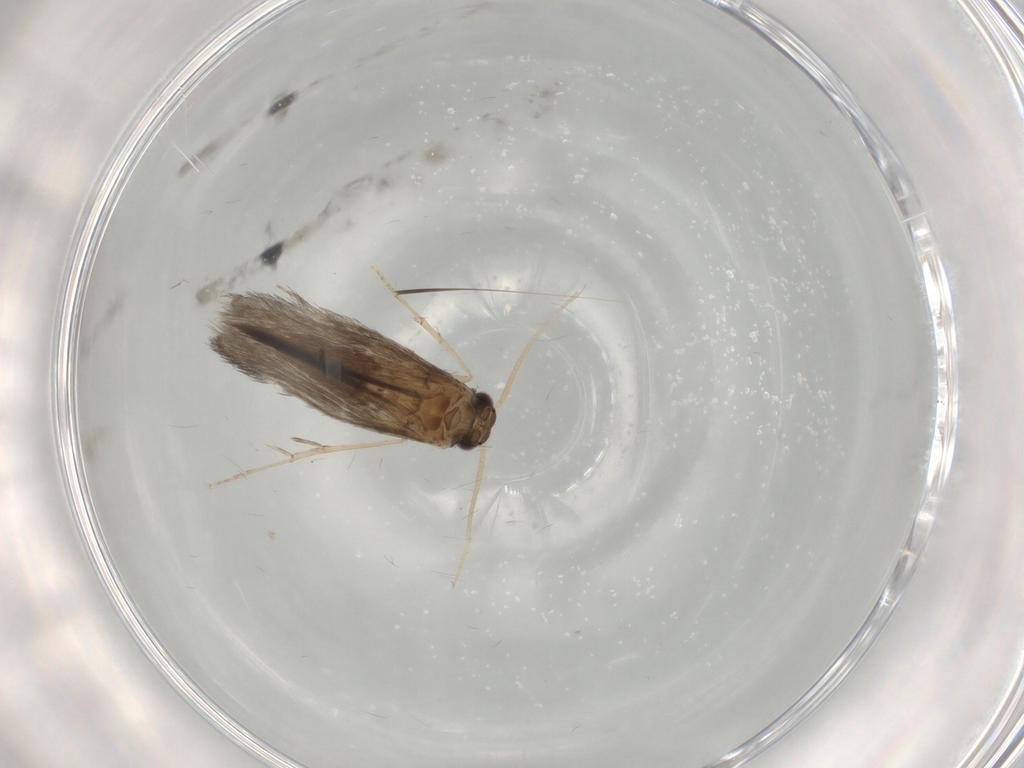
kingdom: Animalia
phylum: Arthropoda
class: Insecta
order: Trichoptera
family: Hydroptilidae
